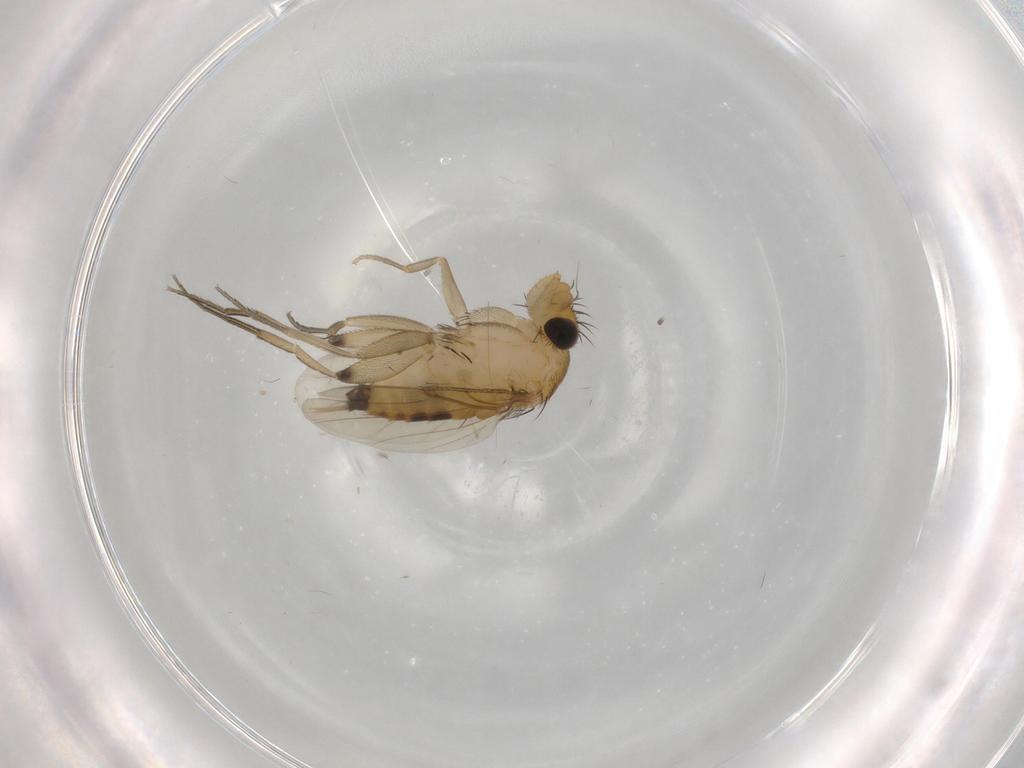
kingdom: Animalia
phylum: Arthropoda
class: Insecta
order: Diptera
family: Phoridae
